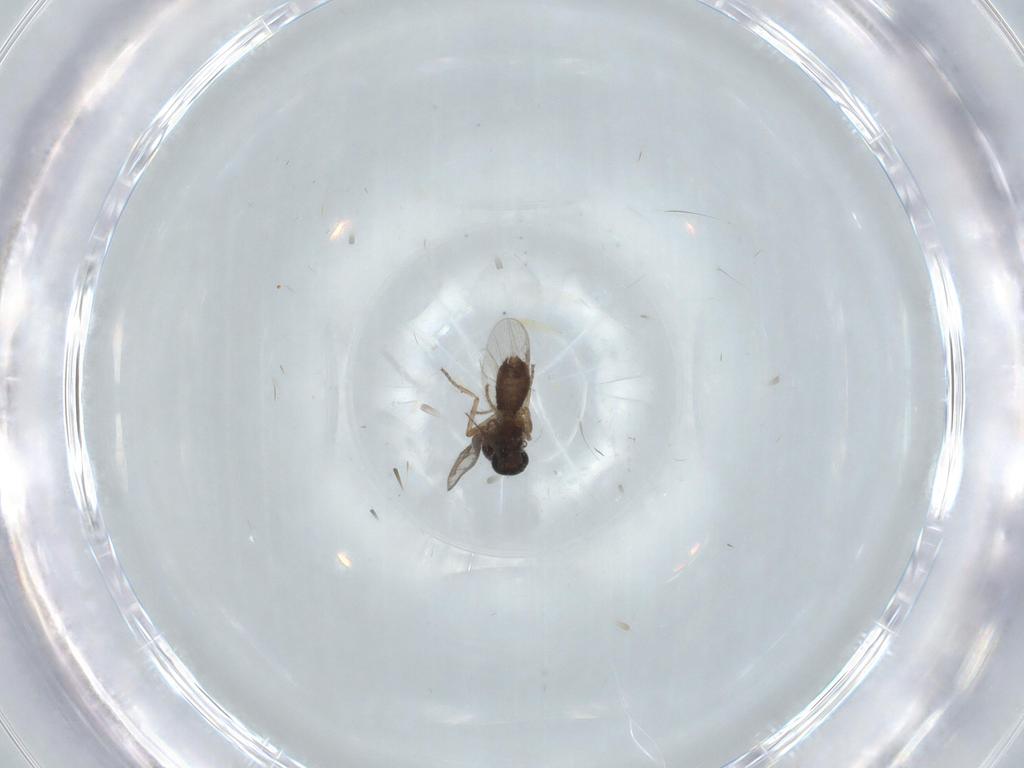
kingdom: Animalia
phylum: Arthropoda
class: Insecta
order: Diptera
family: Ceratopogonidae
